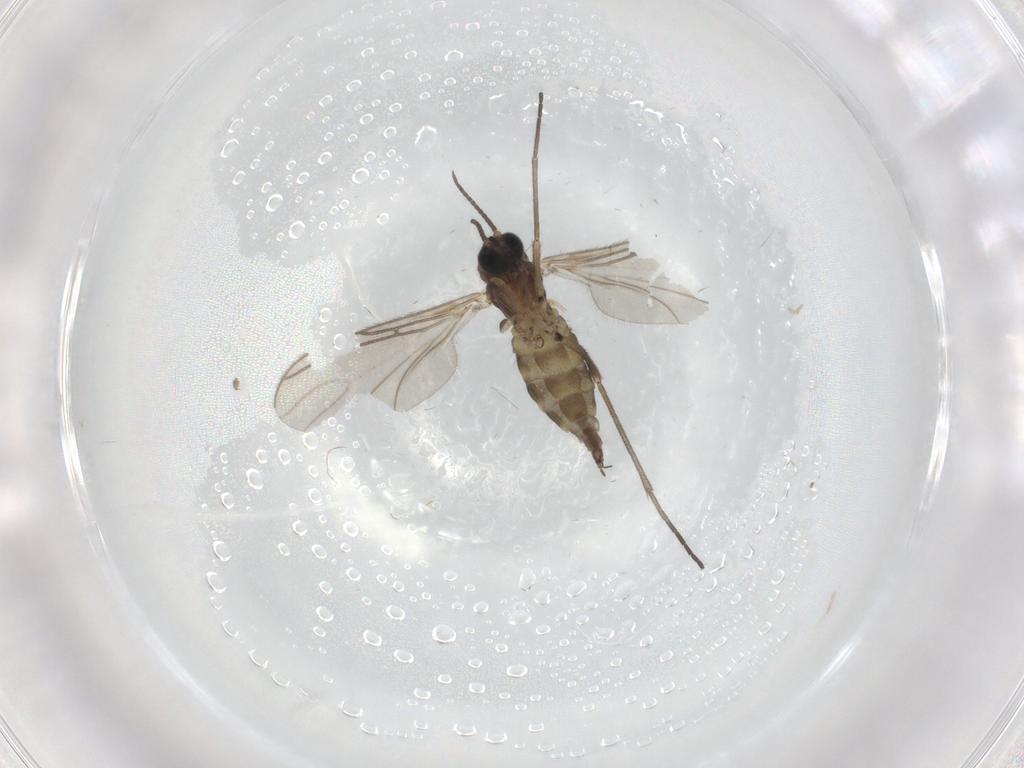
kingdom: Animalia
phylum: Arthropoda
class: Insecta
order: Diptera
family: Sciaridae
